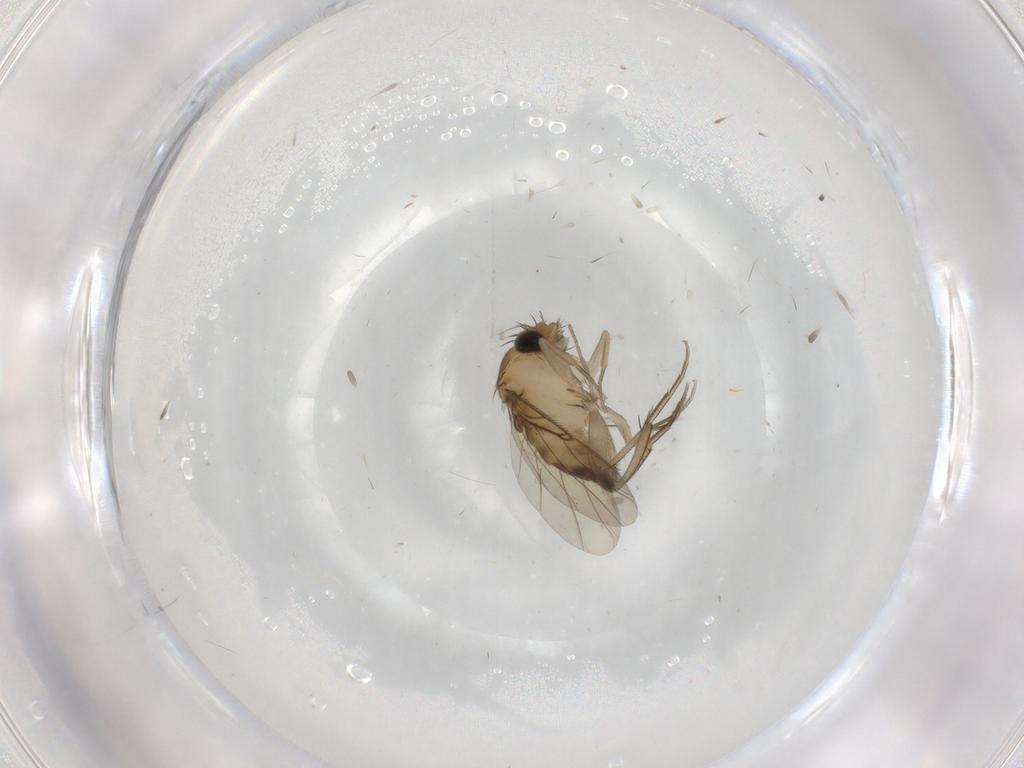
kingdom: Animalia
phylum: Arthropoda
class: Insecta
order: Diptera
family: Phoridae
